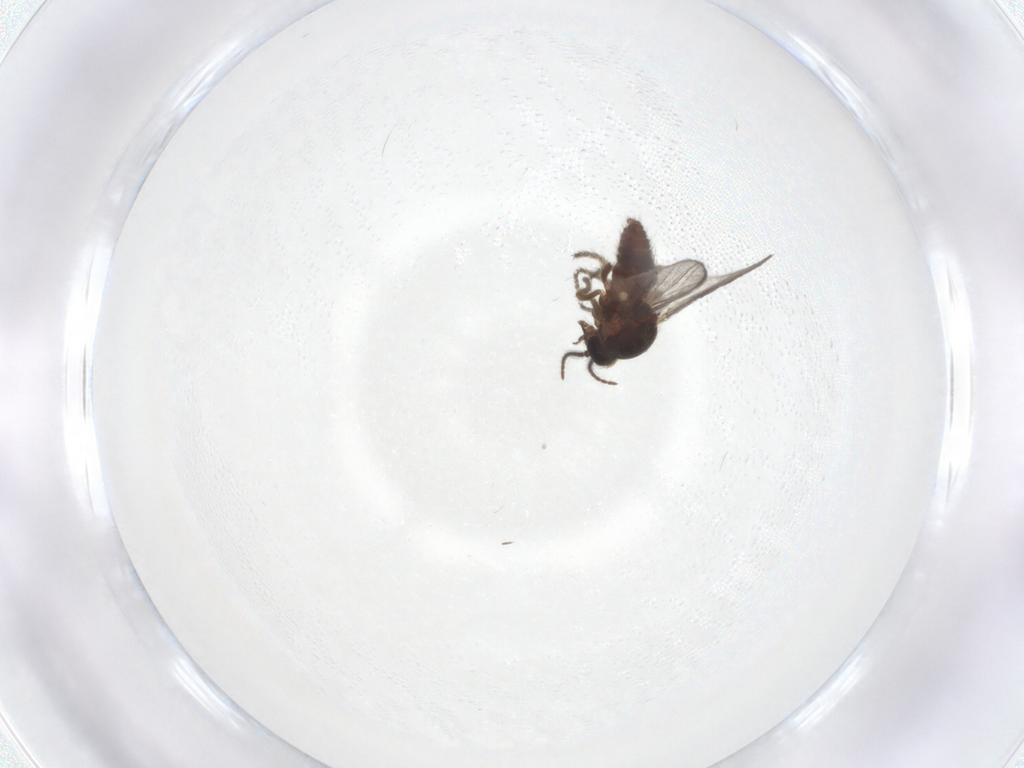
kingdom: Animalia
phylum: Arthropoda
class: Insecta
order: Diptera
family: Ceratopogonidae
